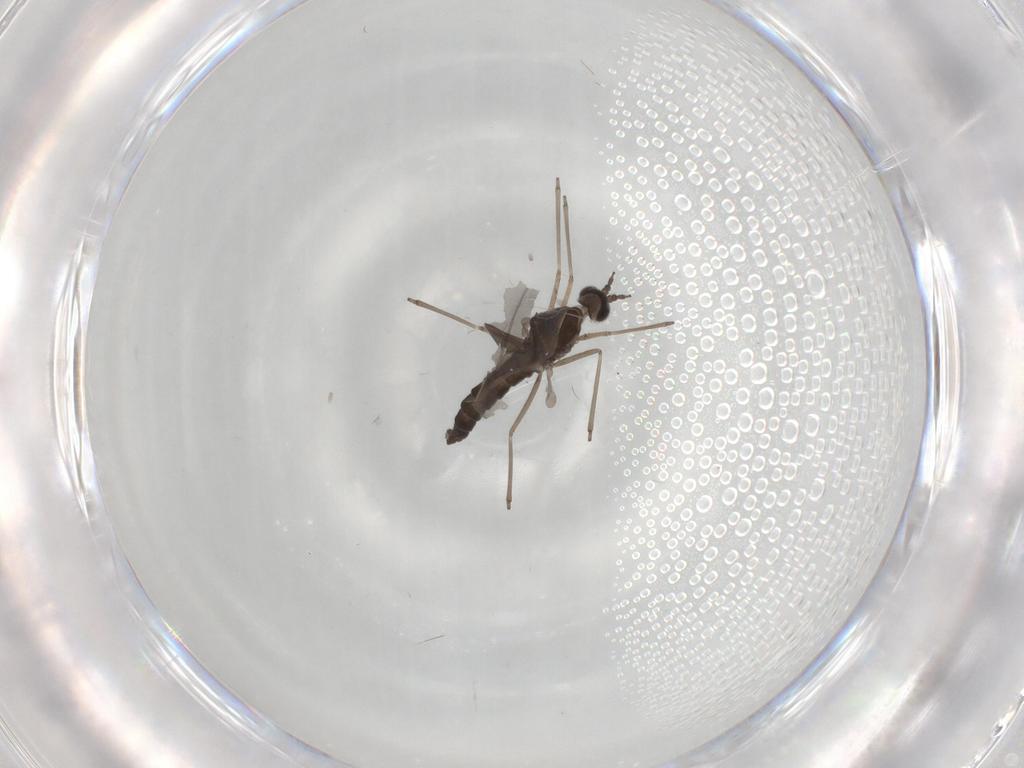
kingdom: Animalia
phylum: Arthropoda
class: Insecta
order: Diptera
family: Cecidomyiidae
